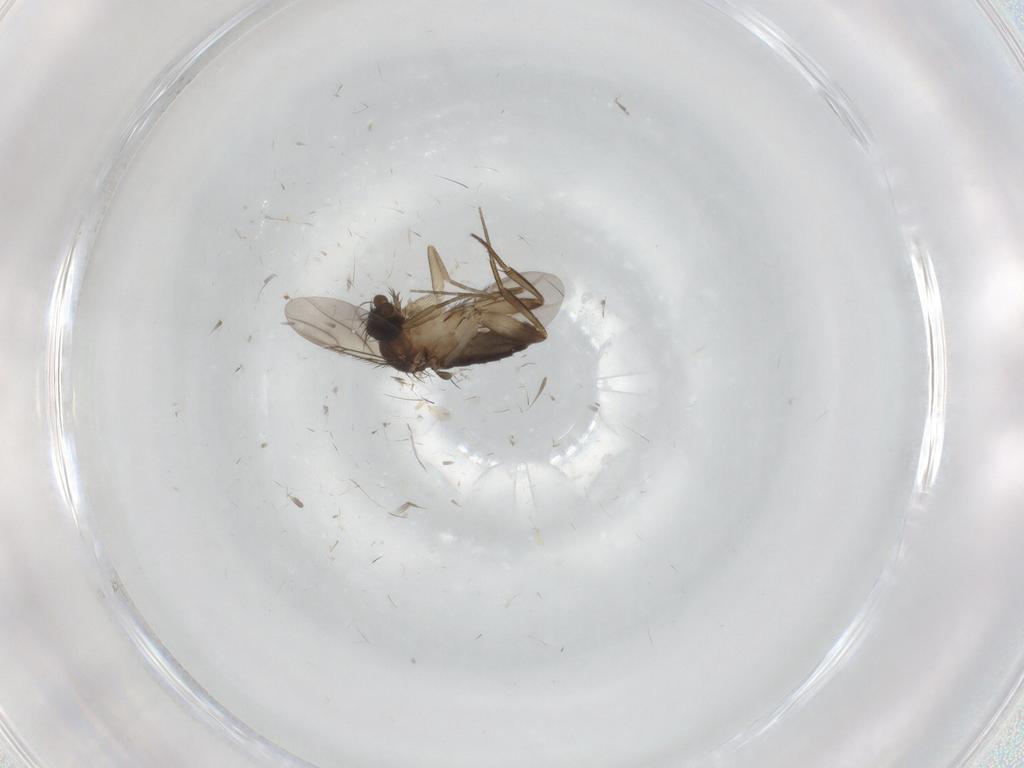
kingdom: Animalia
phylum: Arthropoda
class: Insecta
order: Diptera
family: Phoridae
